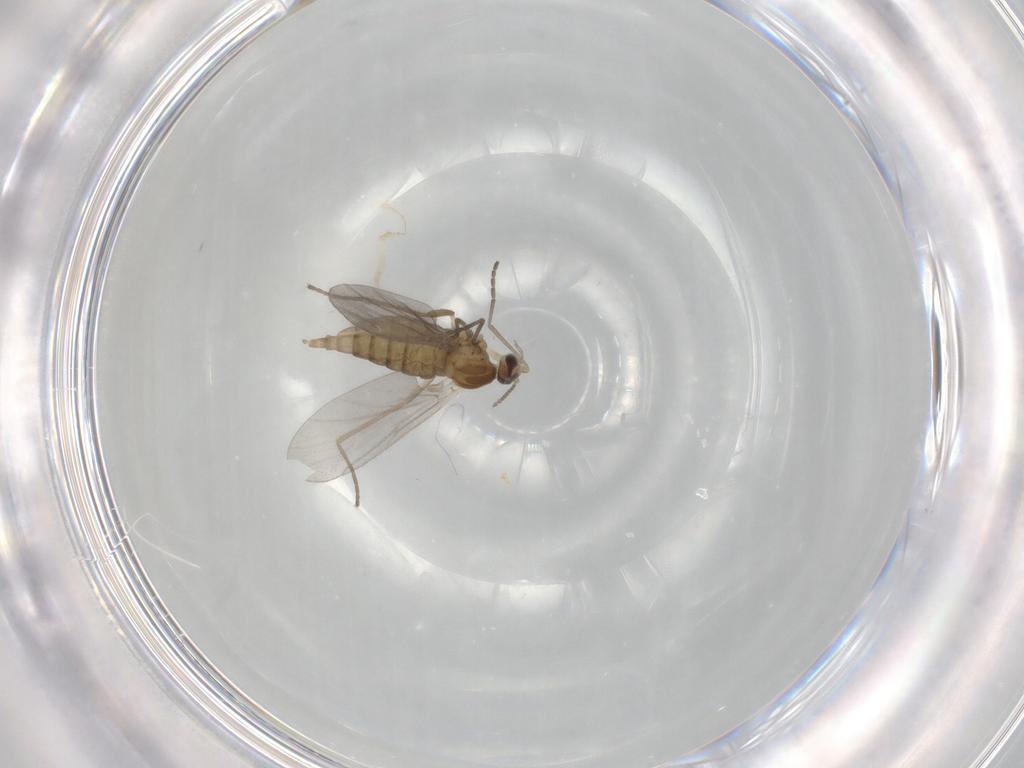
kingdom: Animalia
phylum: Arthropoda
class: Insecta
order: Diptera
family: Cecidomyiidae
